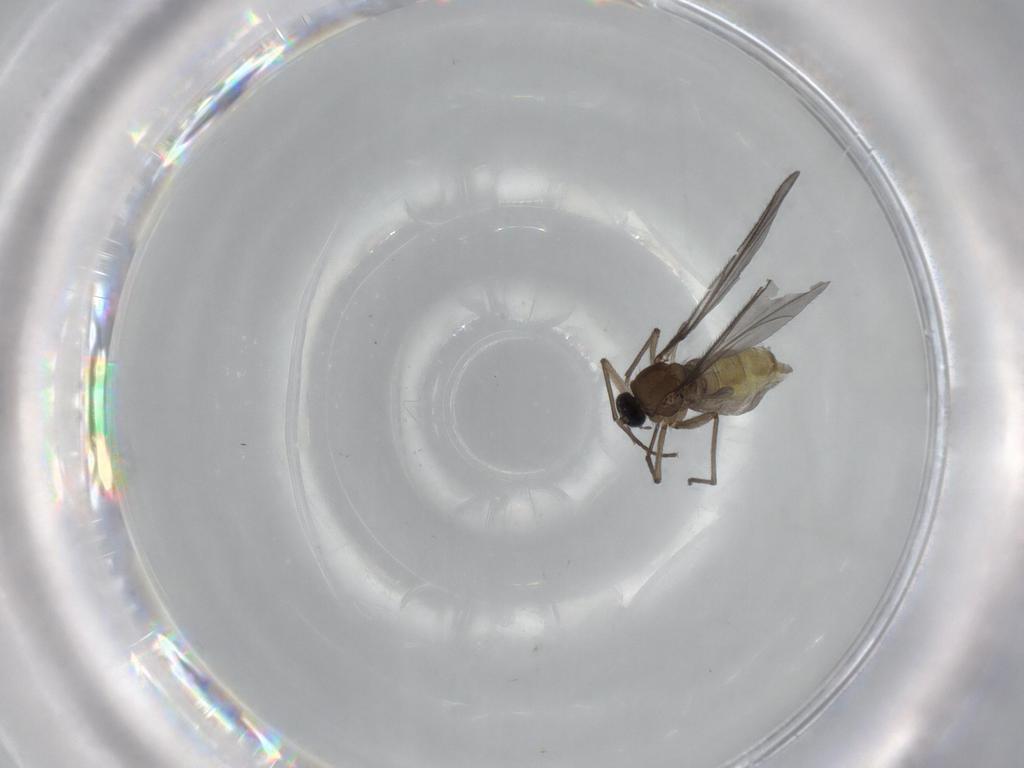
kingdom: Animalia
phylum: Arthropoda
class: Insecta
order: Diptera
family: Sciaridae
